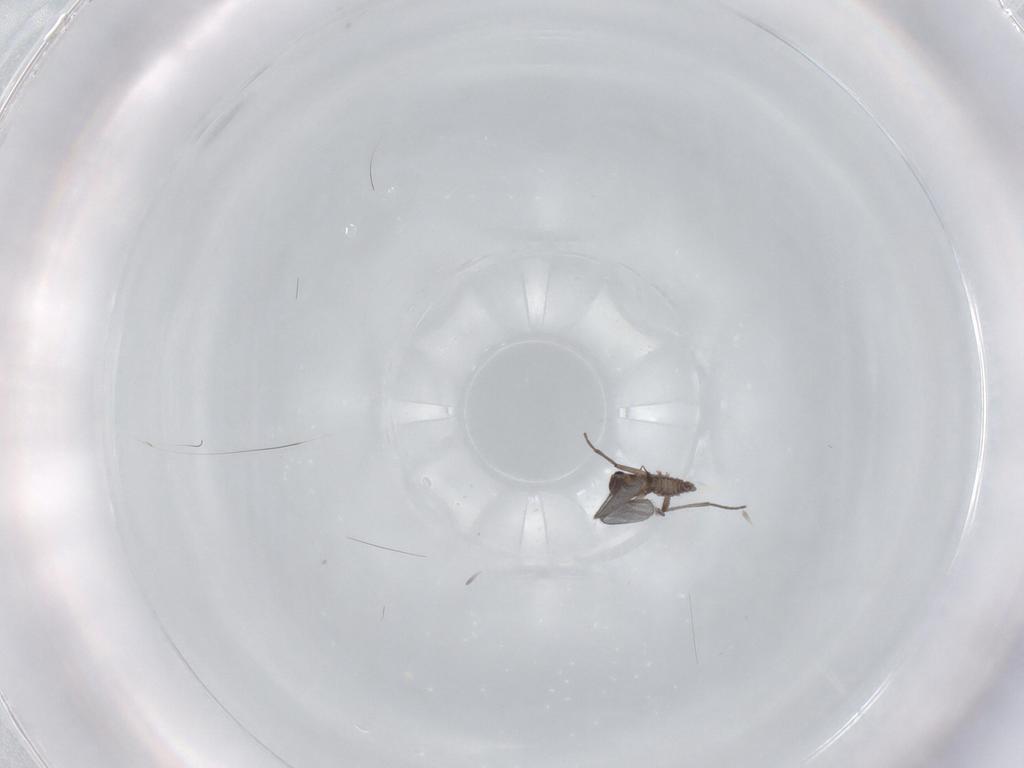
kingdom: Animalia
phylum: Arthropoda
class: Insecta
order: Diptera
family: Sciaridae
